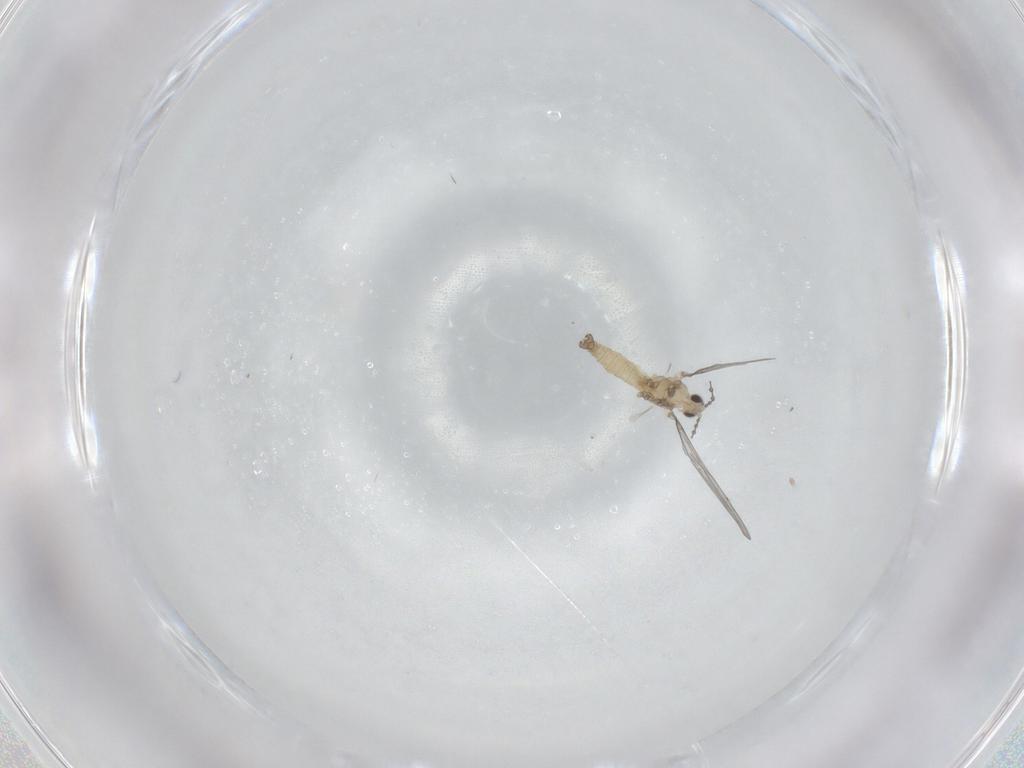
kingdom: Animalia
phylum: Arthropoda
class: Insecta
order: Diptera
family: Cecidomyiidae
